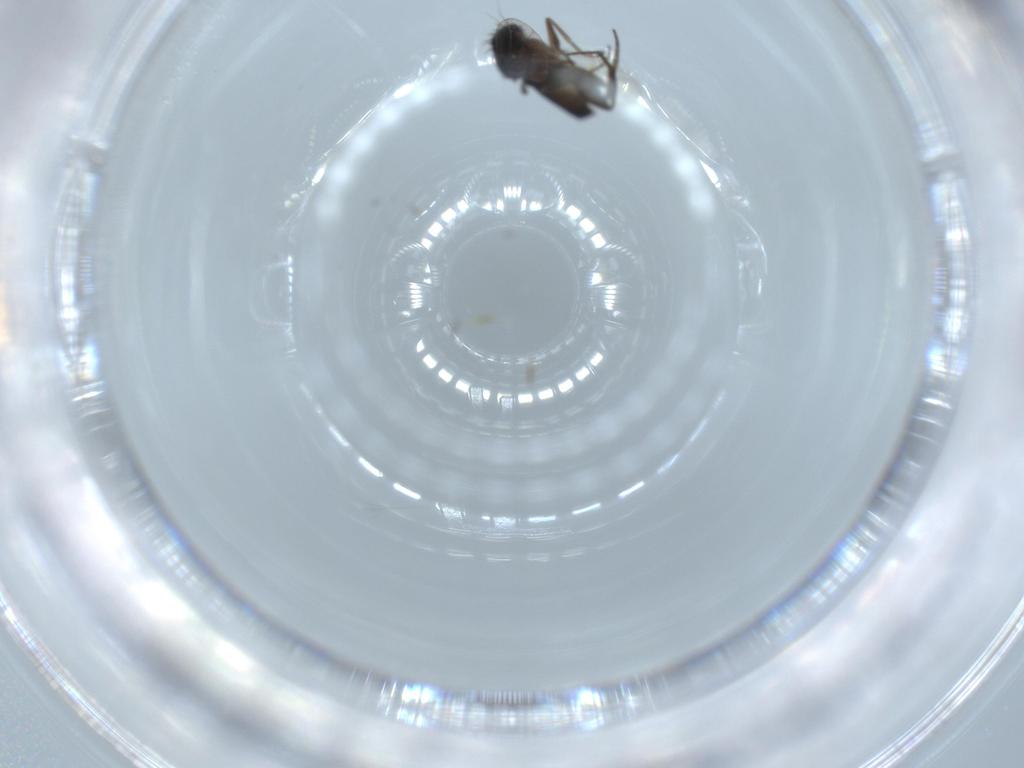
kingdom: Animalia
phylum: Arthropoda
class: Insecta
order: Diptera
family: Phoridae
